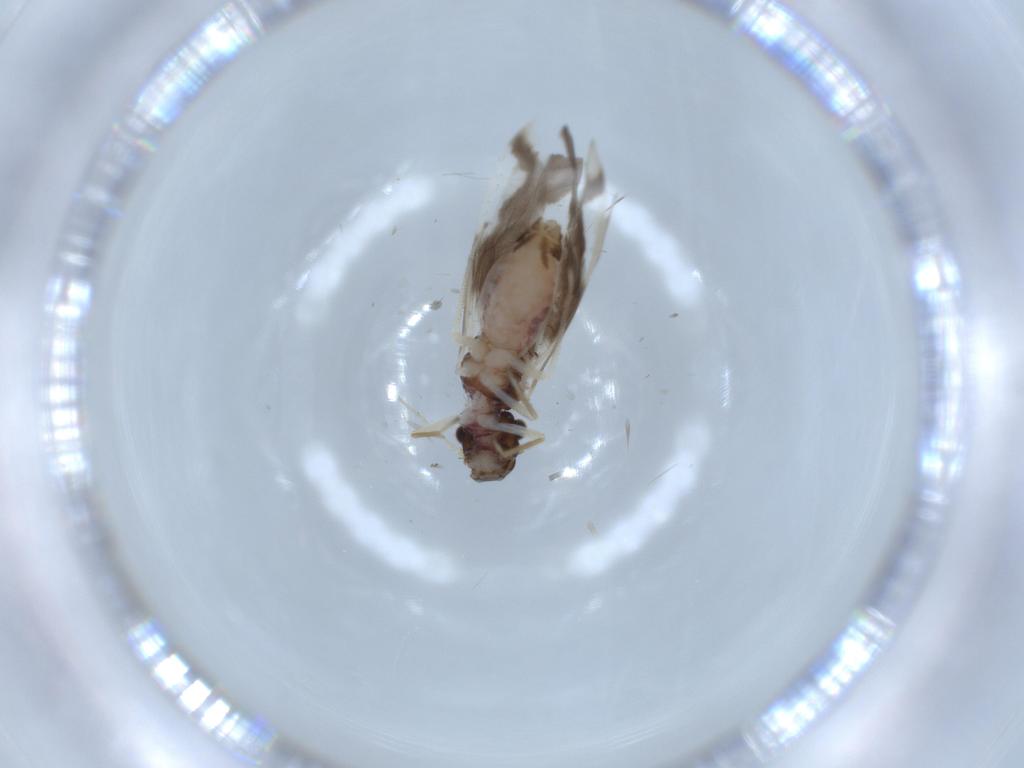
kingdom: Animalia
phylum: Arthropoda
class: Insecta
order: Psocodea
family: Caeciliusidae
